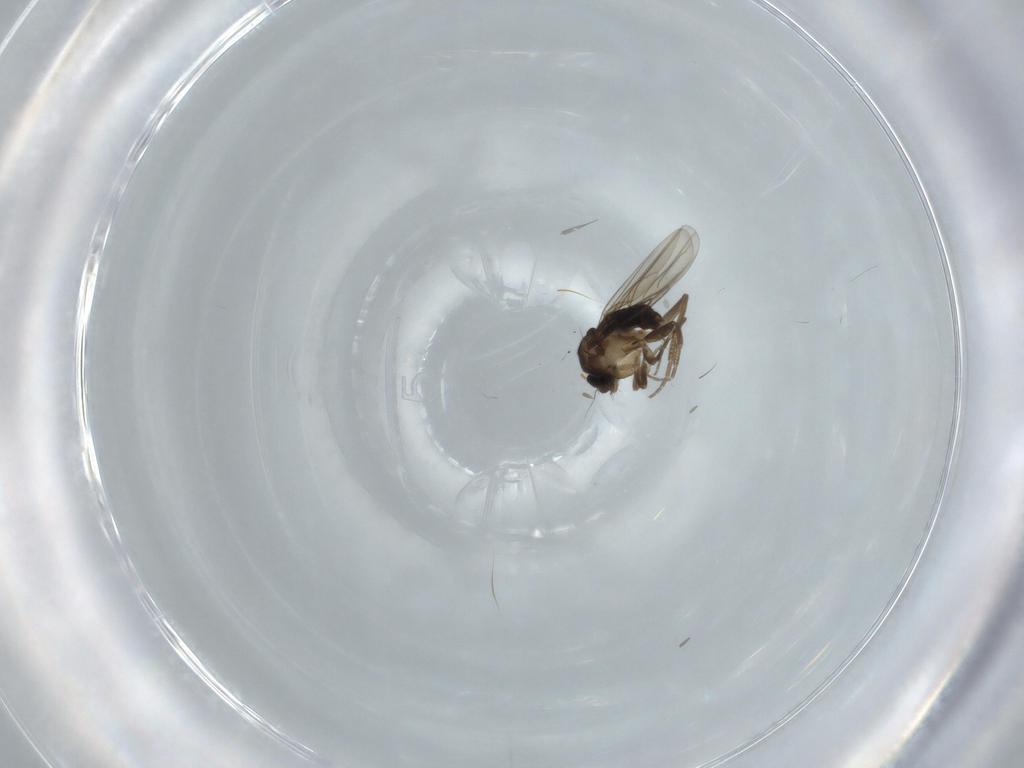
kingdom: Animalia
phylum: Arthropoda
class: Insecta
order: Diptera
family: Phoridae
